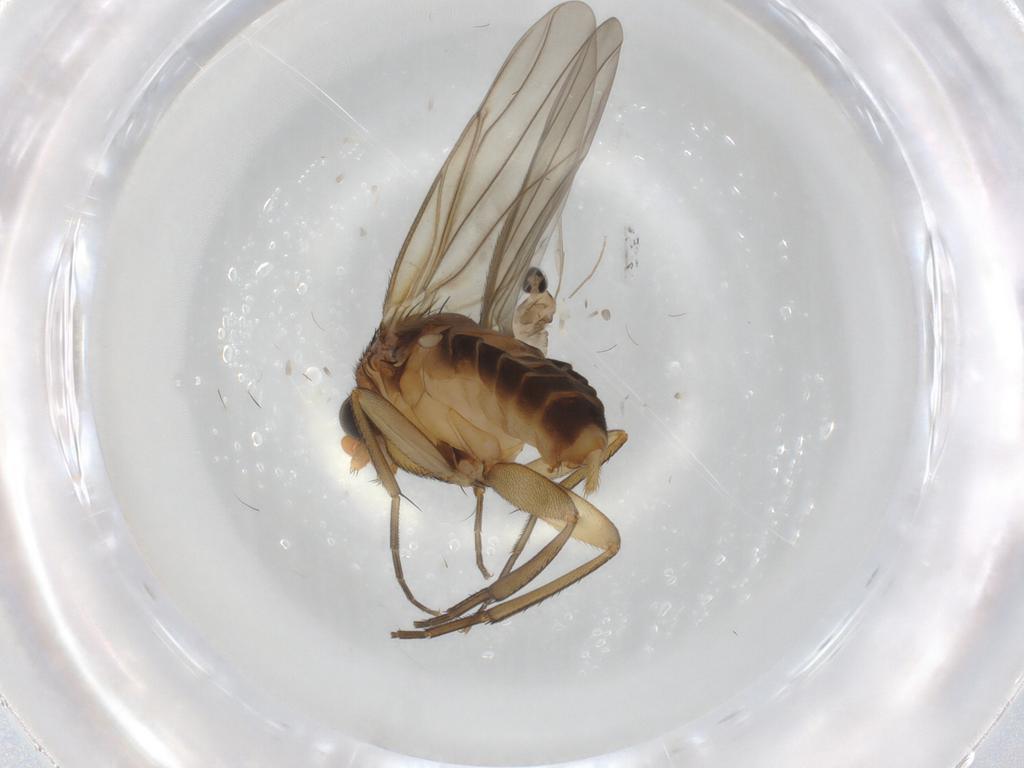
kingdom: Animalia
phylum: Arthropoda
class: Insecta
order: Diptera
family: Cecidomyiidae
